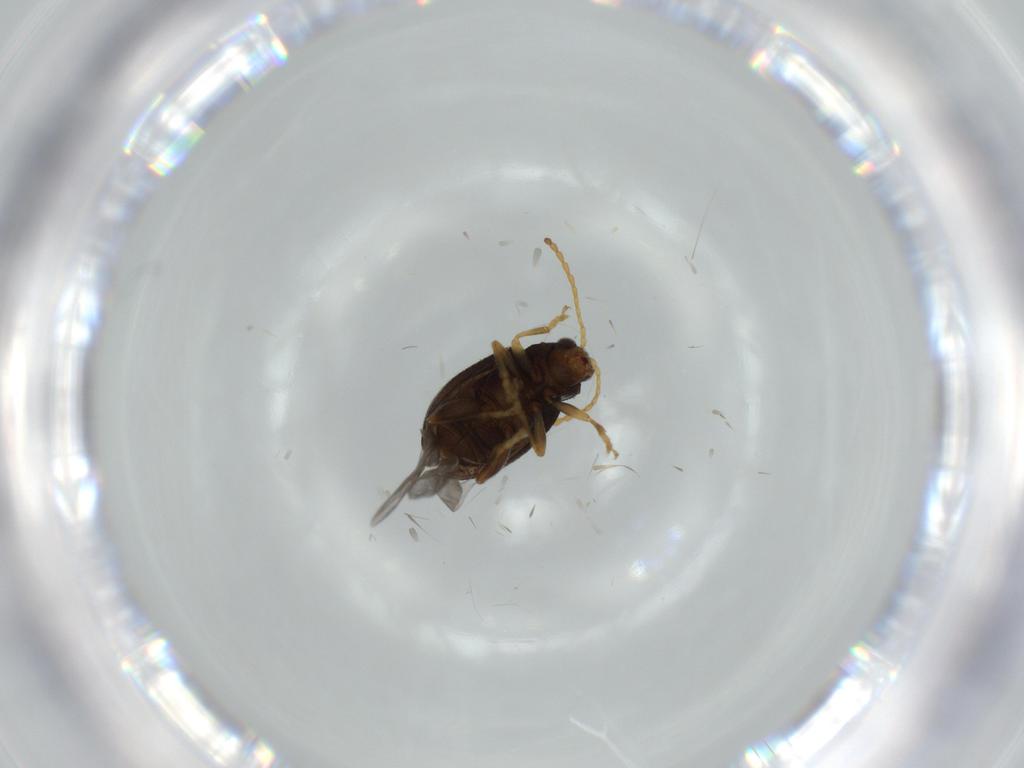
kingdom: Animalia
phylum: Arthropoda
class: Insecta
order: Coleoptera
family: Chrysomelidae
